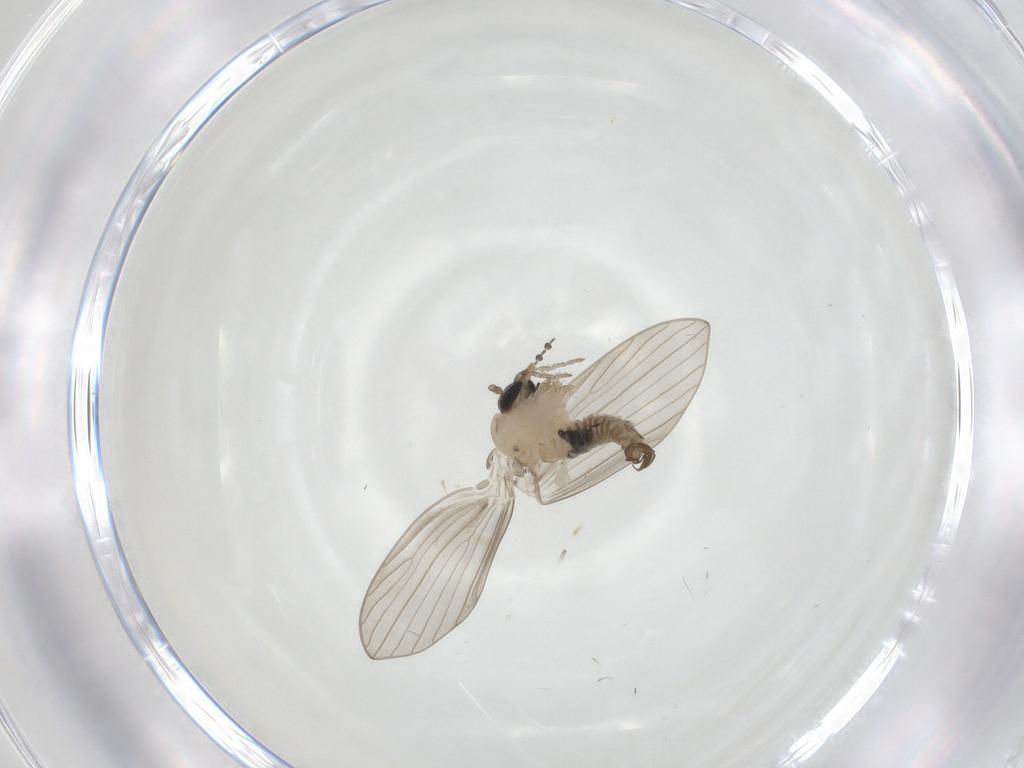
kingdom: Animalia
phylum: Arthropoda
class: Insecta
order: Diptera
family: Psychodidae
